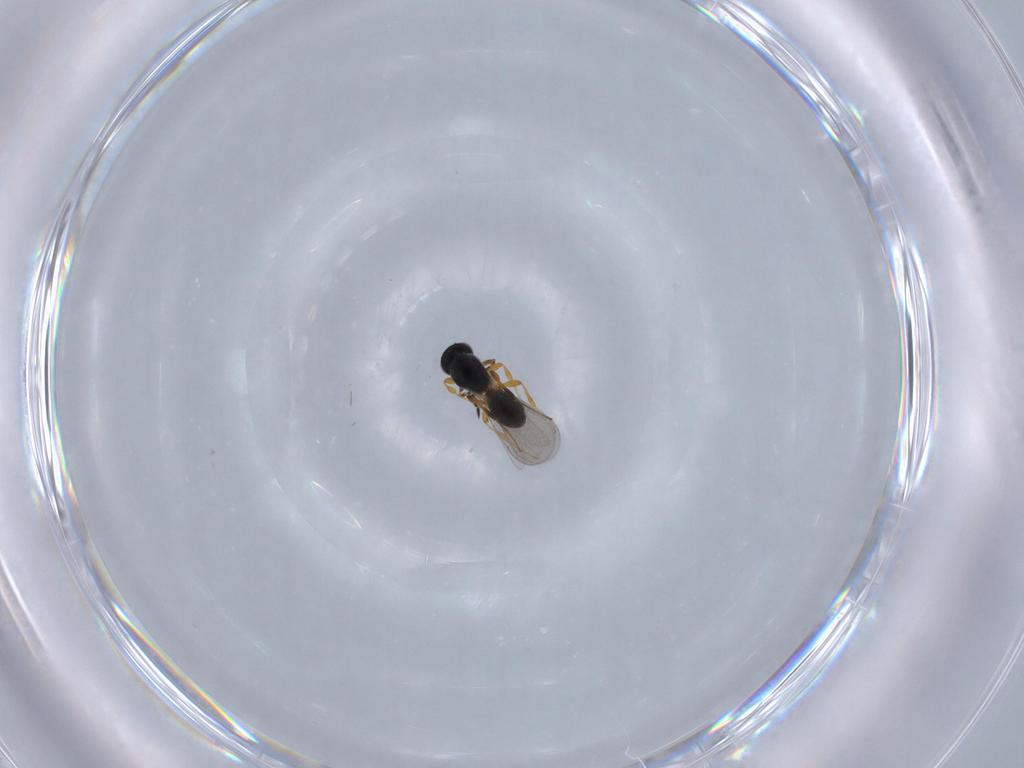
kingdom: Animalia
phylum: Arthropoda
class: Insecta
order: Hymenoptera
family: Platygastridae
